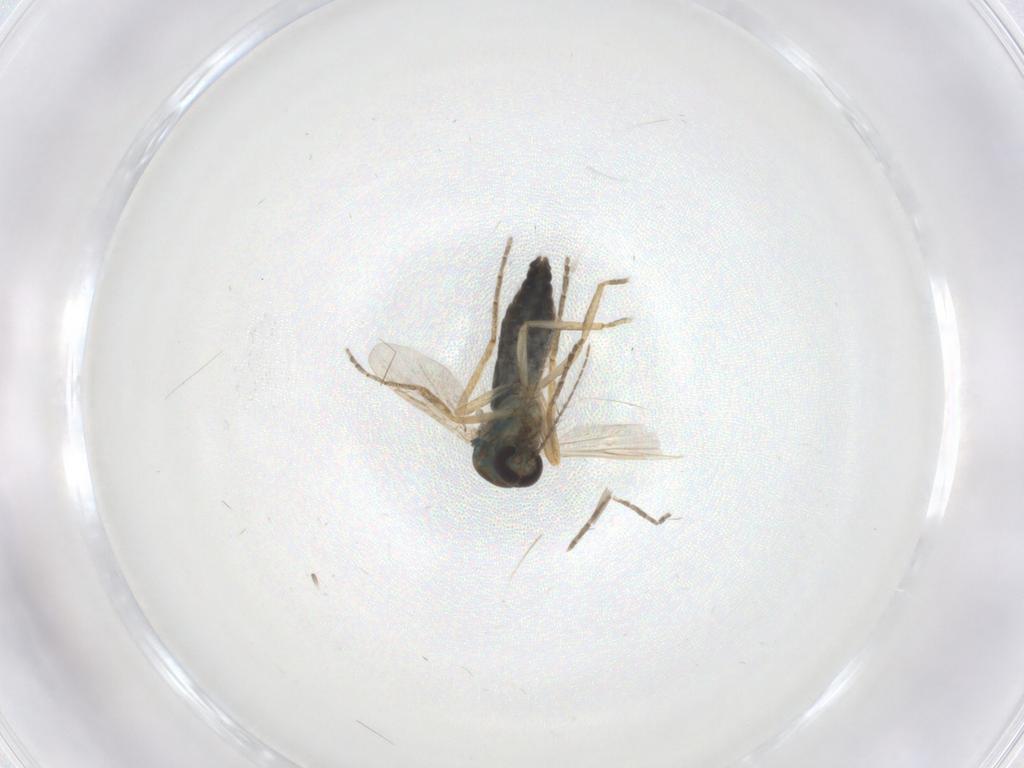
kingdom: Animalia
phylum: Arthropoda
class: Insecta
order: Diptera
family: Ceratopogonidae
